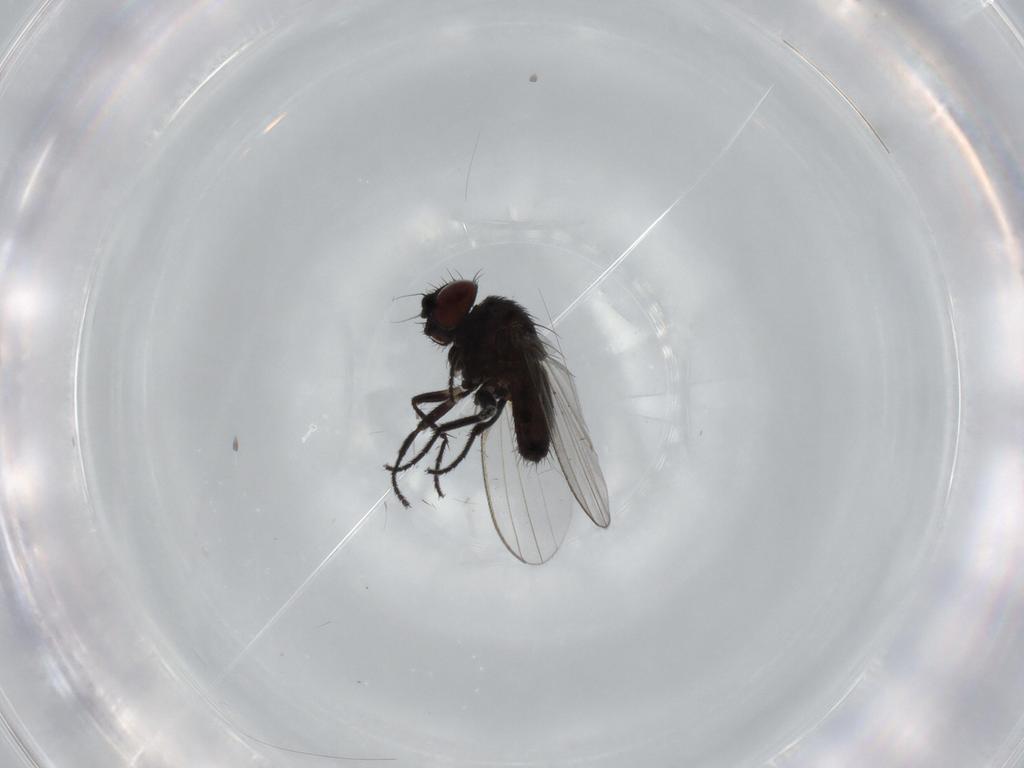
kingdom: Animalia
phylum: Arthropoda
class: Insecta
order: Diptera
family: Milichiidae
